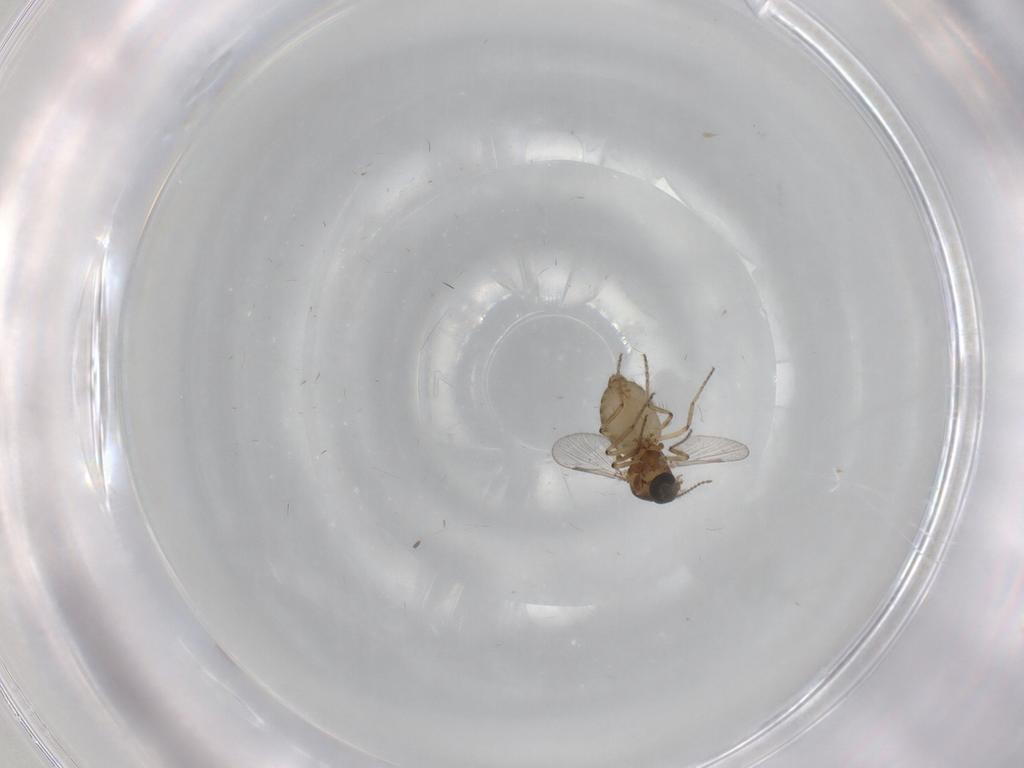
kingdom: Animalia
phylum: Arthropoda
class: Insecta
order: Diptera
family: Ceratopogonidae
